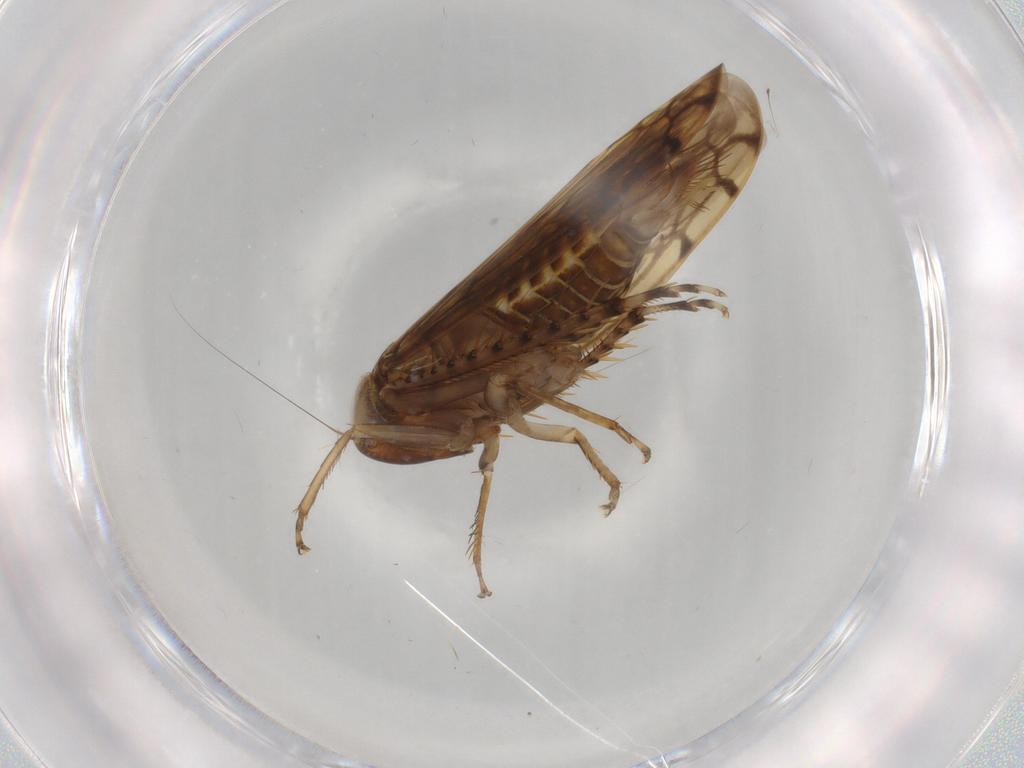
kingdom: Animalia
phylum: Arthropoda
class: Insecta
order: Hemiptera
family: Cicadellidae
